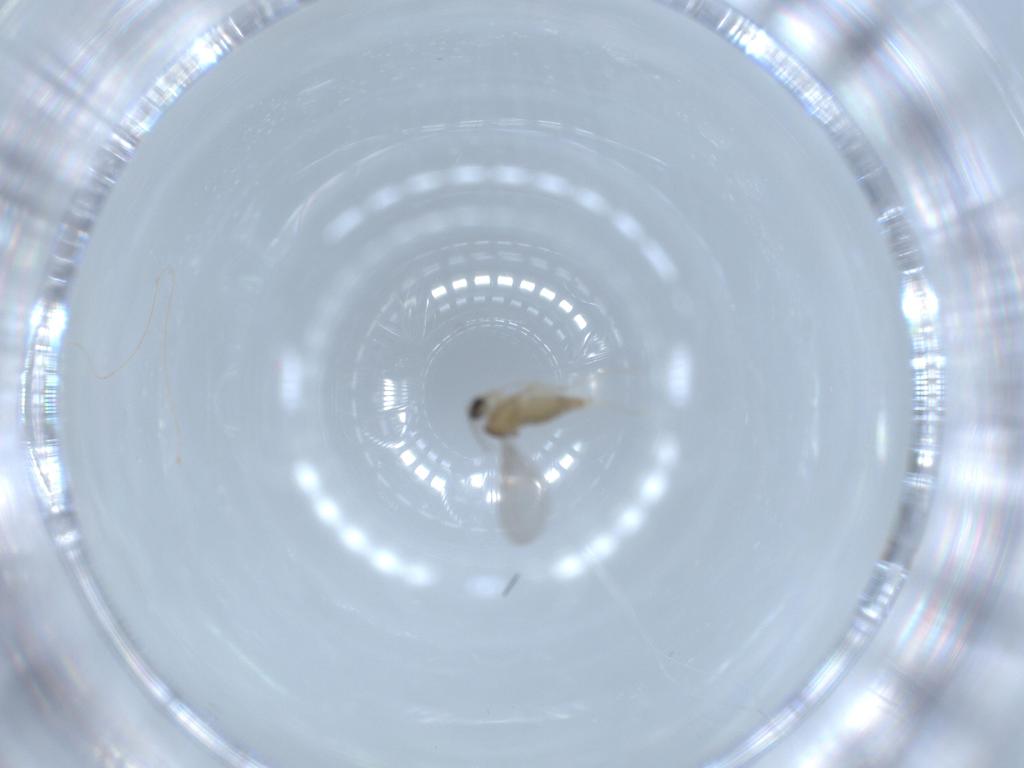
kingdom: Animalia
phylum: Arthropoda
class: Insecta
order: Diptera
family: Cecidomyiidae
